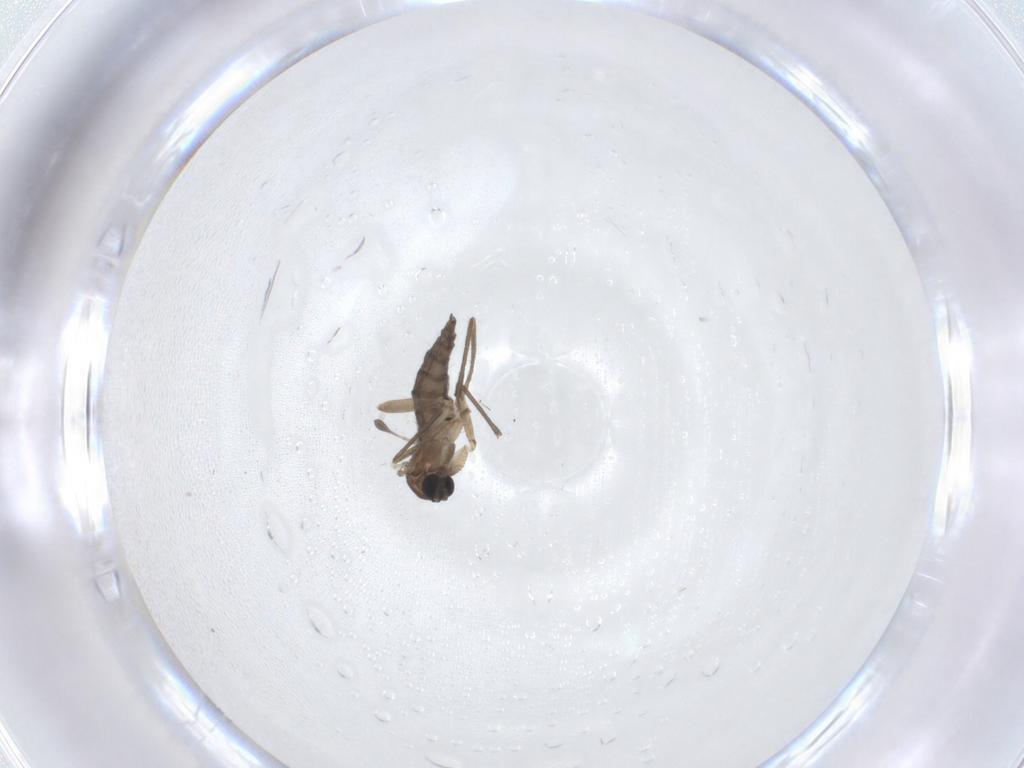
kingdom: Animalia
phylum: Arthropoda
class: Insecta
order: Diptera
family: Sciaridae
